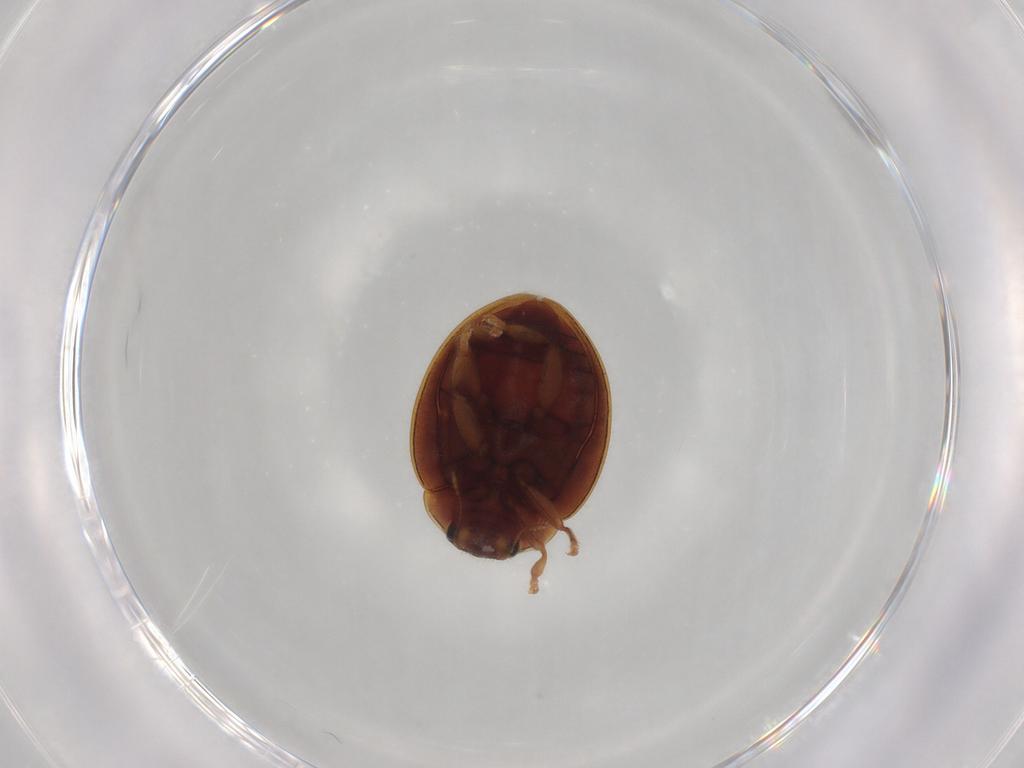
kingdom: Animalia
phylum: Arthropoda
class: Insecta
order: Coleoptera
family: Coccinellidae
